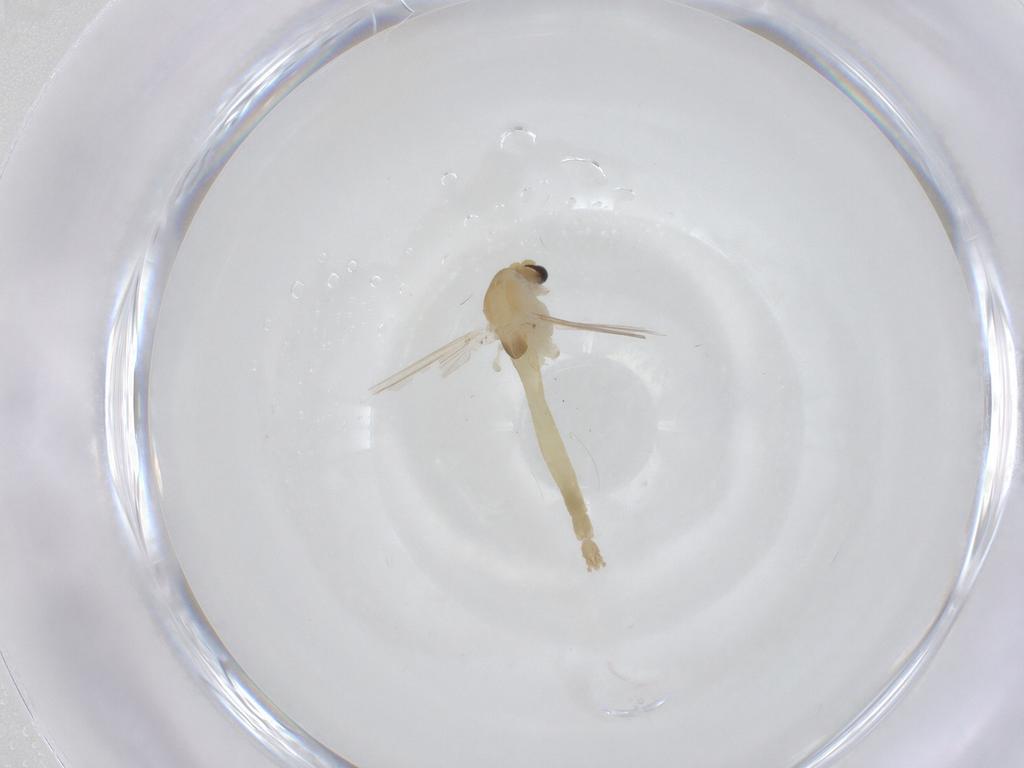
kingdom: Animalia
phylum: Arthropoda
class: Insecta
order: Diptera
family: Chironomidae
